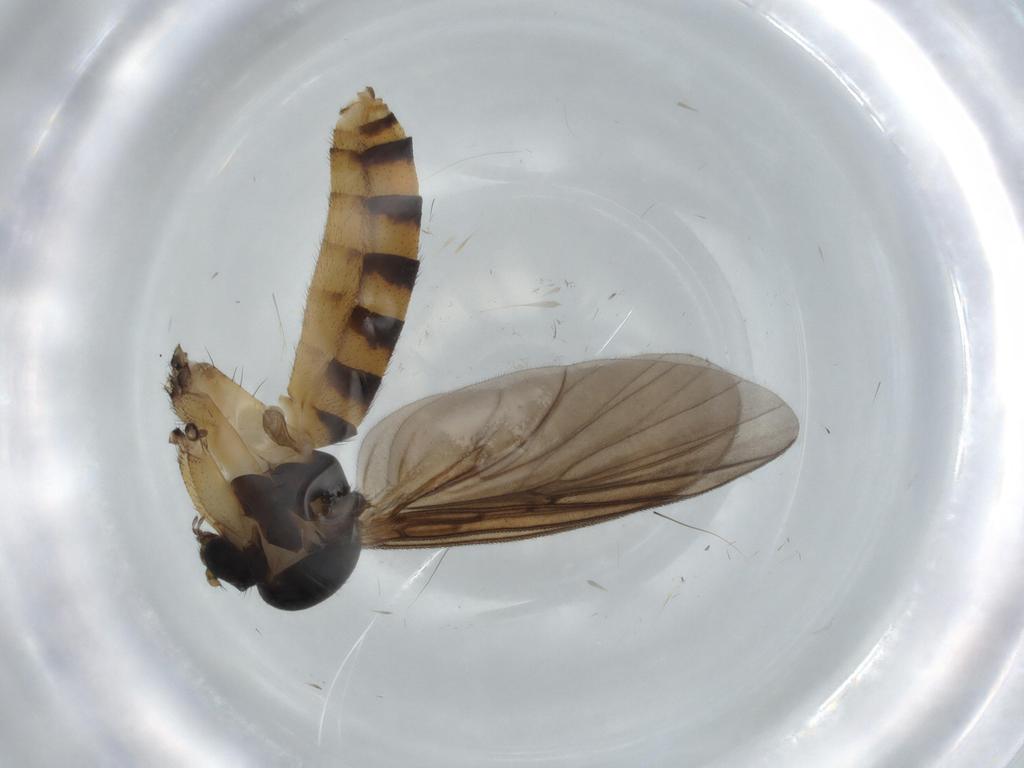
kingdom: Animalia
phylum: Arthropoda
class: Insecta
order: Diptera
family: Mycetophilidae
